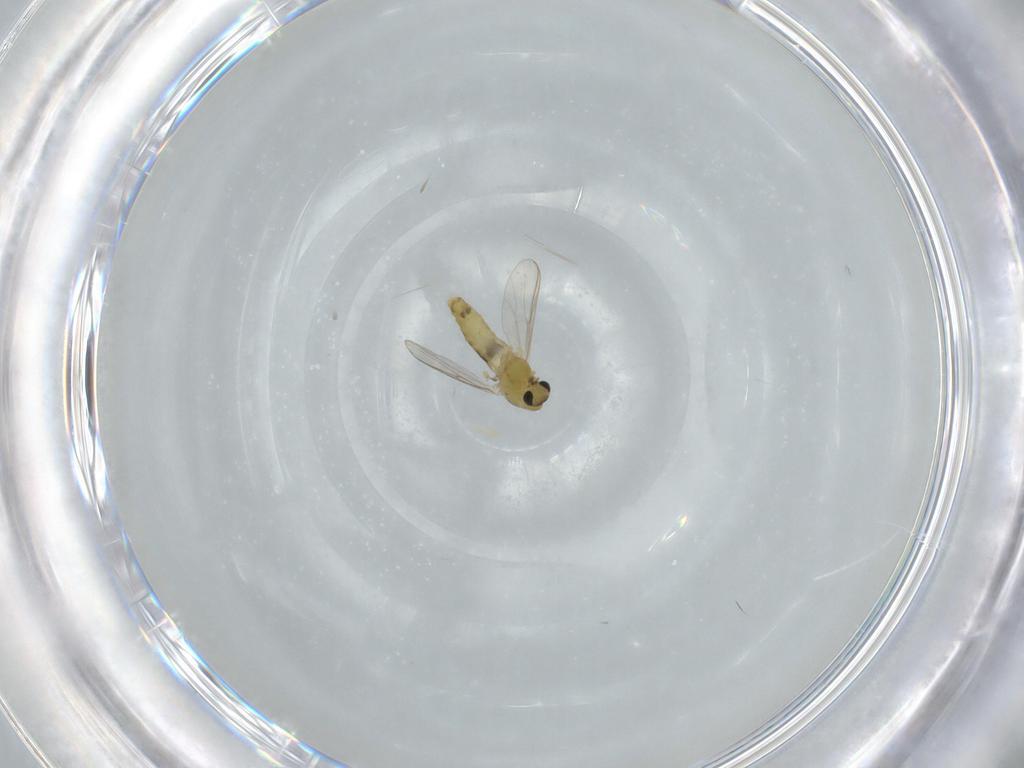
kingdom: Animalia
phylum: Arthropoda
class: Insecta
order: Diptera
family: Chironomidae
